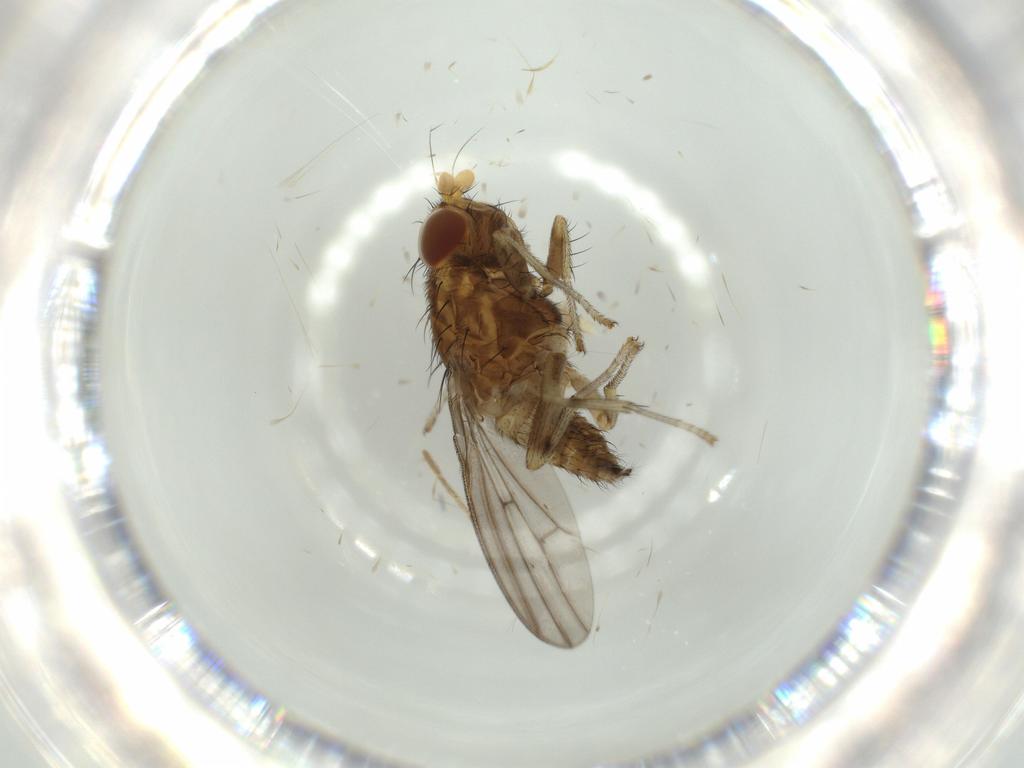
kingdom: Animalia
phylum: Arthropoda
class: Insecta
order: Diptera
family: Lauxaniidae
